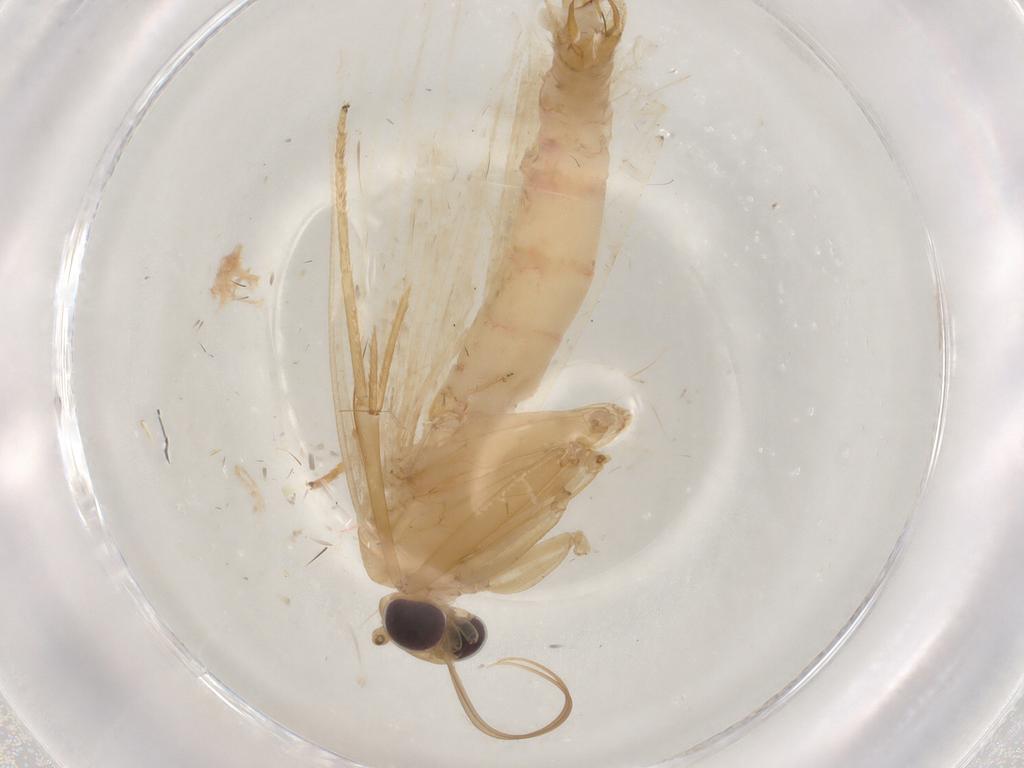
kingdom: Animalia
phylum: Arthropoda
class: Insecta
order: Lepidoptera
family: Erebidae
